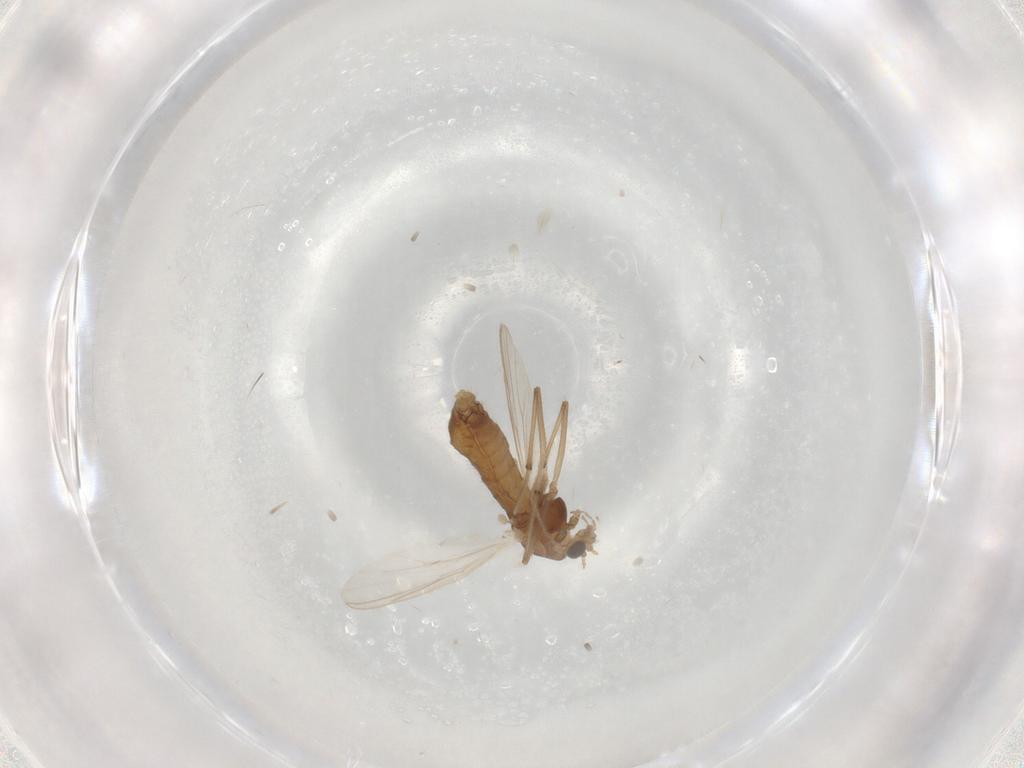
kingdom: Animalia
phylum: Arthropoda
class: Insecta
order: Diptera
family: Chironomidae
